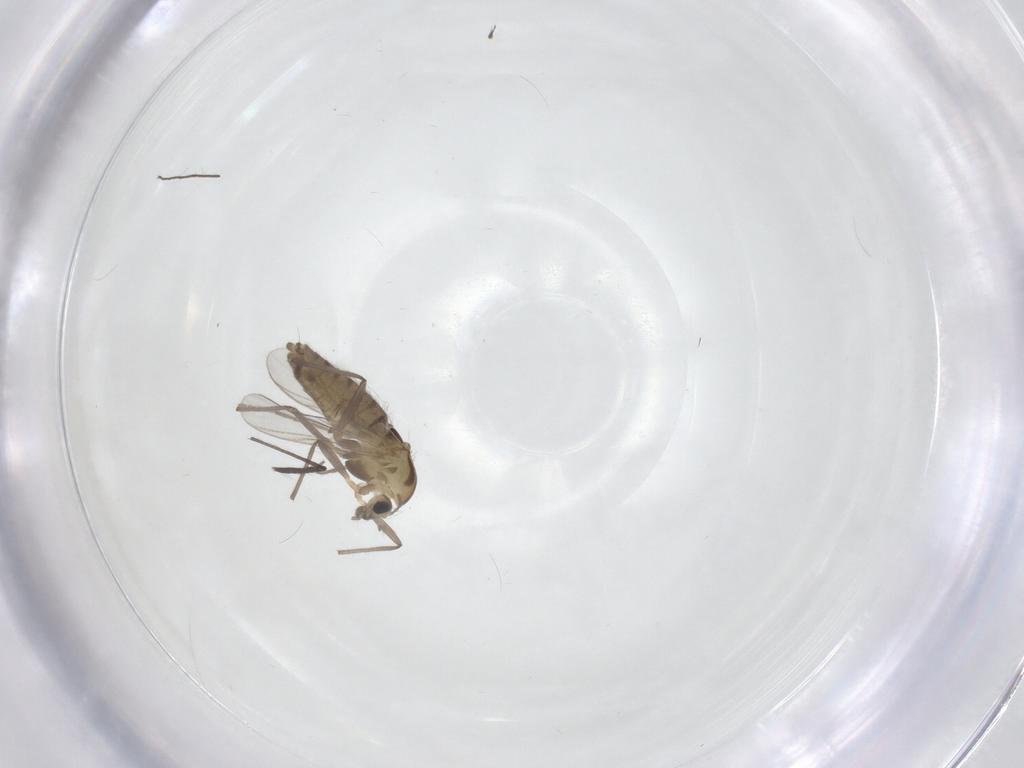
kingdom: Animalia
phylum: Arthropoda
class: Insecta
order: Diptera
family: Chironomidae
